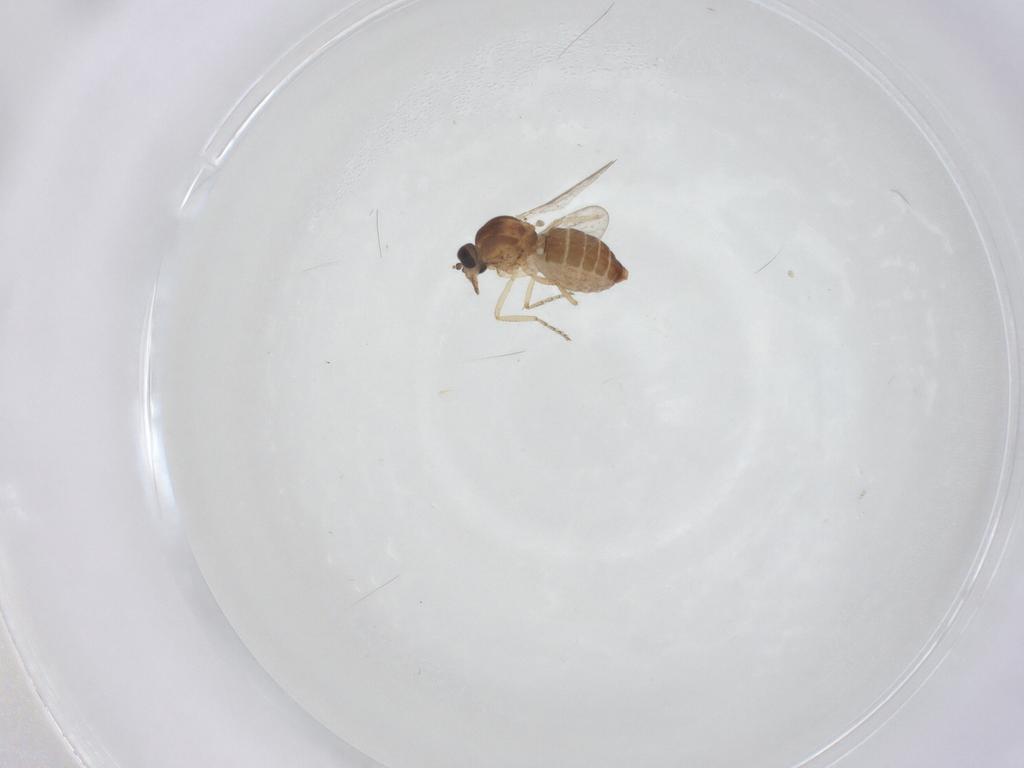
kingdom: Animalia
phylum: Arthropoda
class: Insecta
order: Diptera
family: Ceratopogonidae
